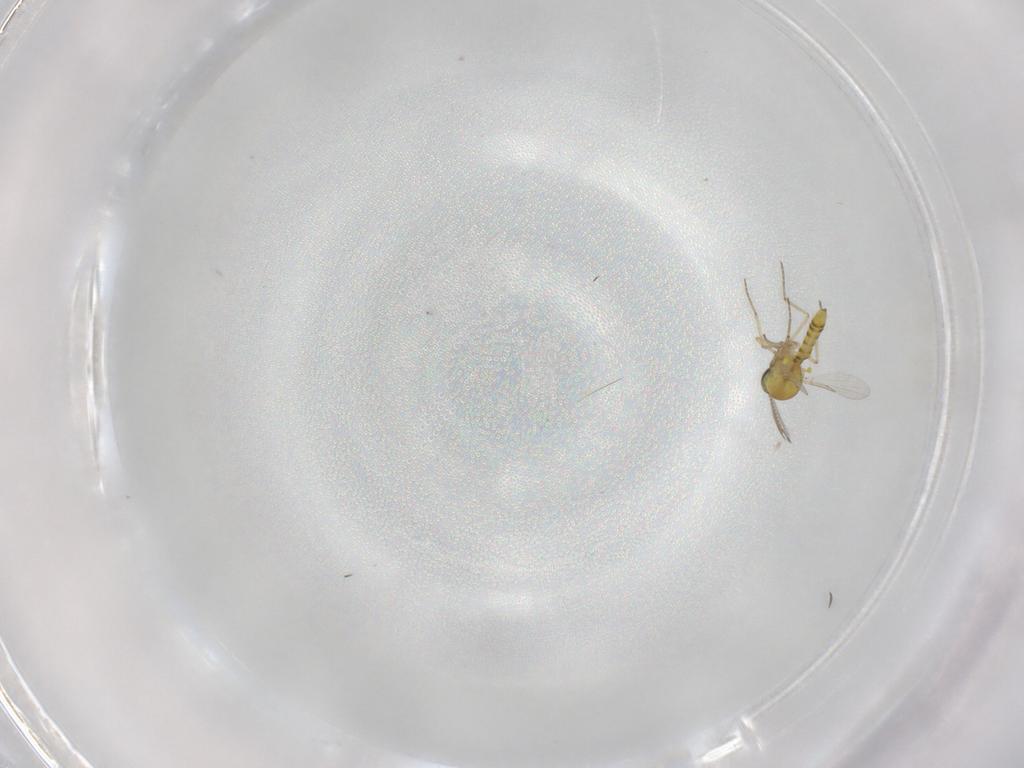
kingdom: Animalia
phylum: Arthropoda
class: Insecta
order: Diptera
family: Ceratopogonidae
